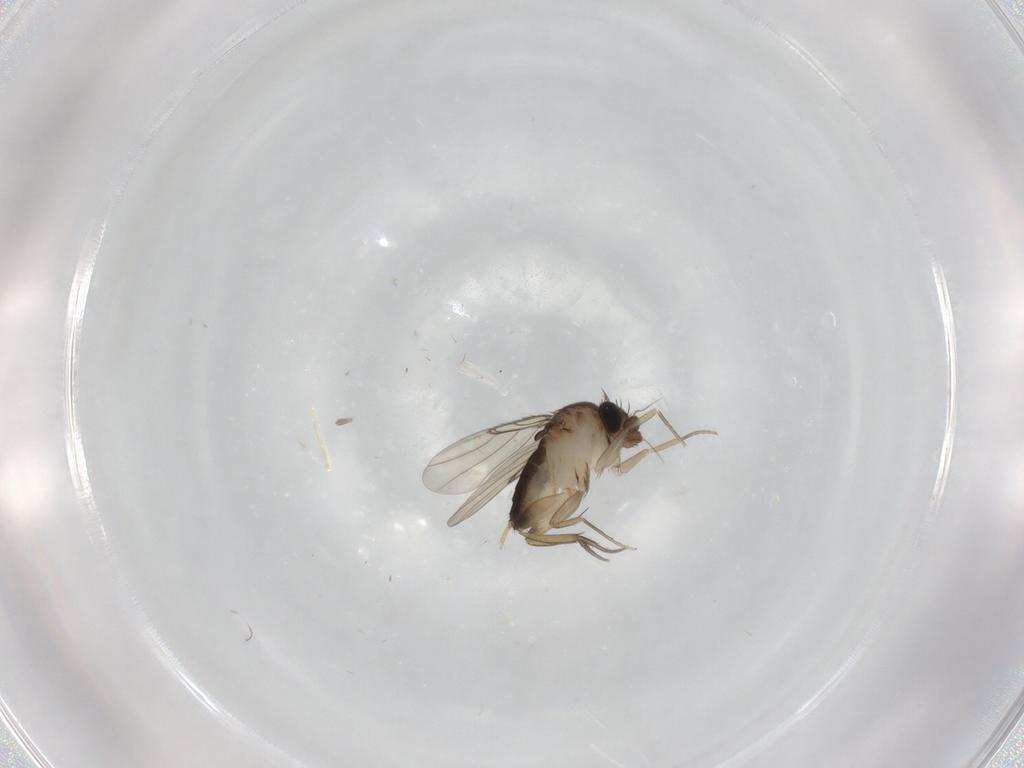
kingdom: Animalia
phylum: Arthropoda
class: Insecta
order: Diptera
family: Phoridae
